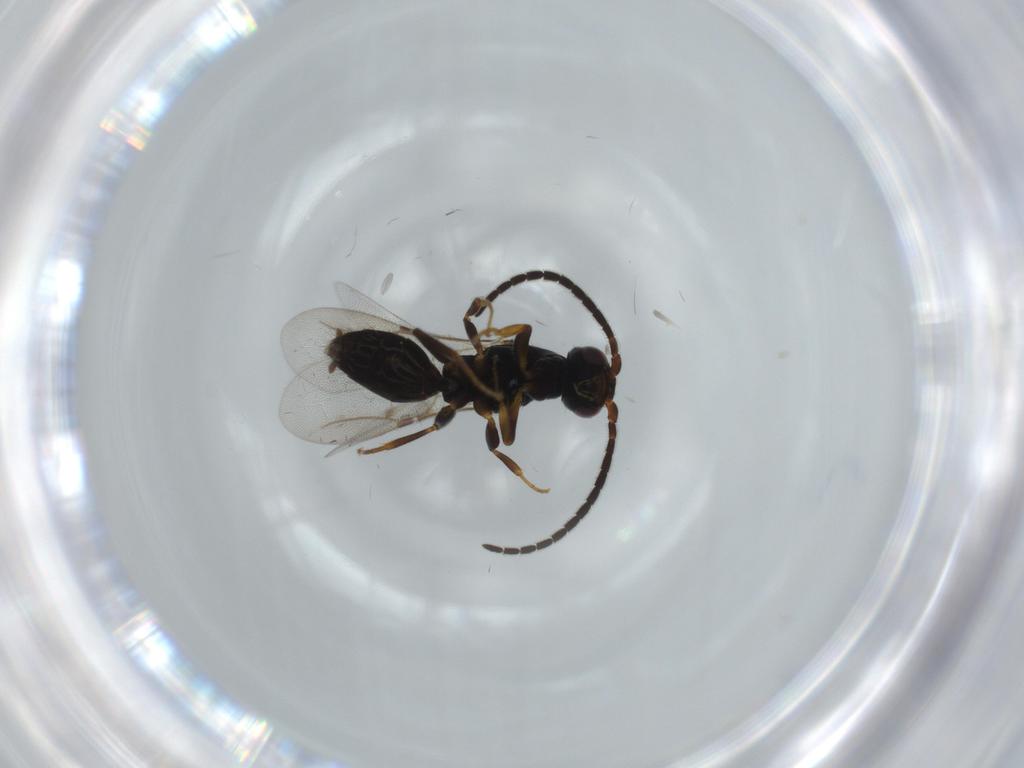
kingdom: Animalia
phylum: Arthropoda
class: Insecta
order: Hymenoptera
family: Bethylidae
